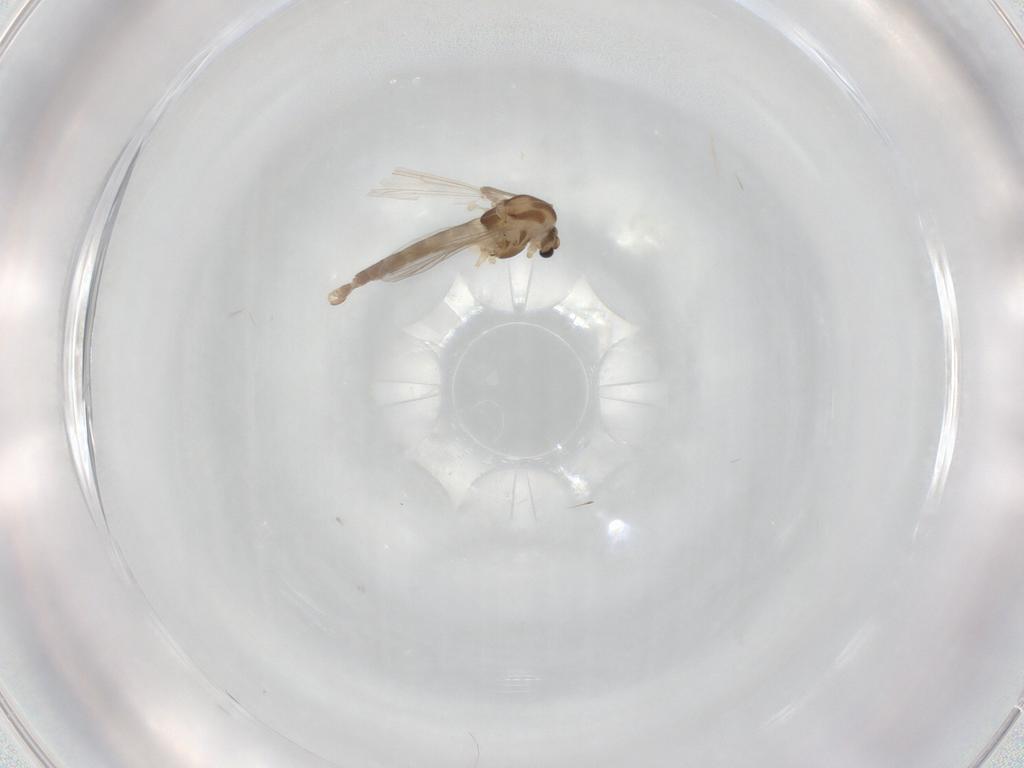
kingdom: Animalia
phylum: Arthropoda
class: Insecta
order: Diptera
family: Chironomidae
